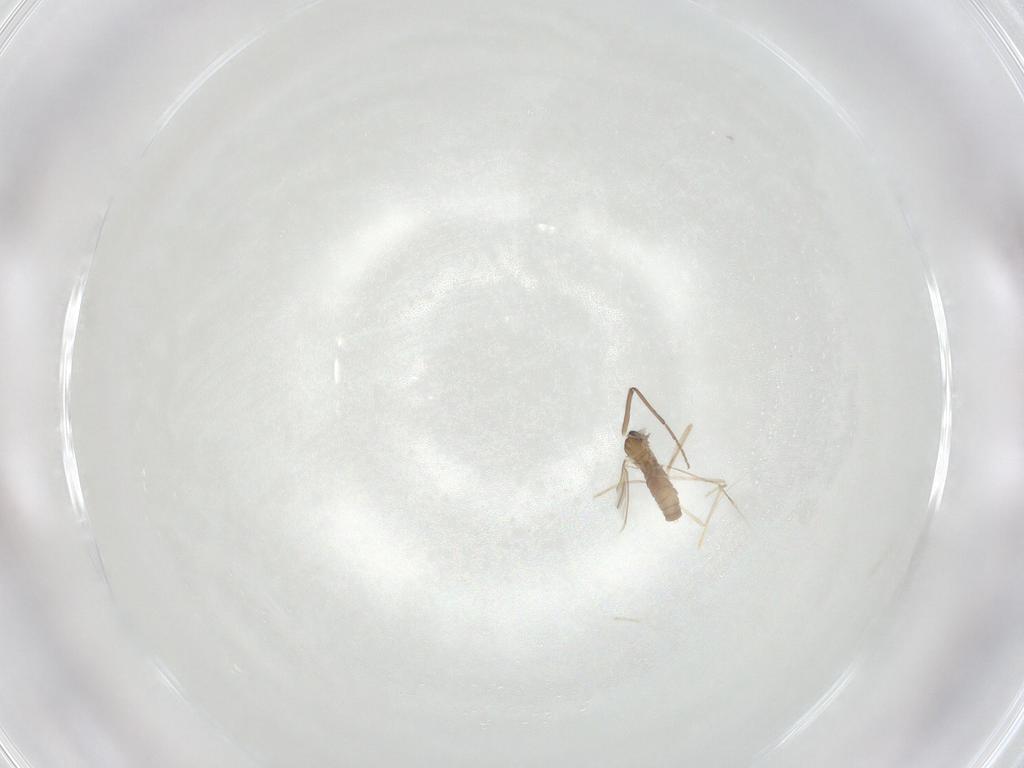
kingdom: Animalia
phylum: Arthropoda
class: Insecta
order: Diptera
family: Cecidomyiidae
